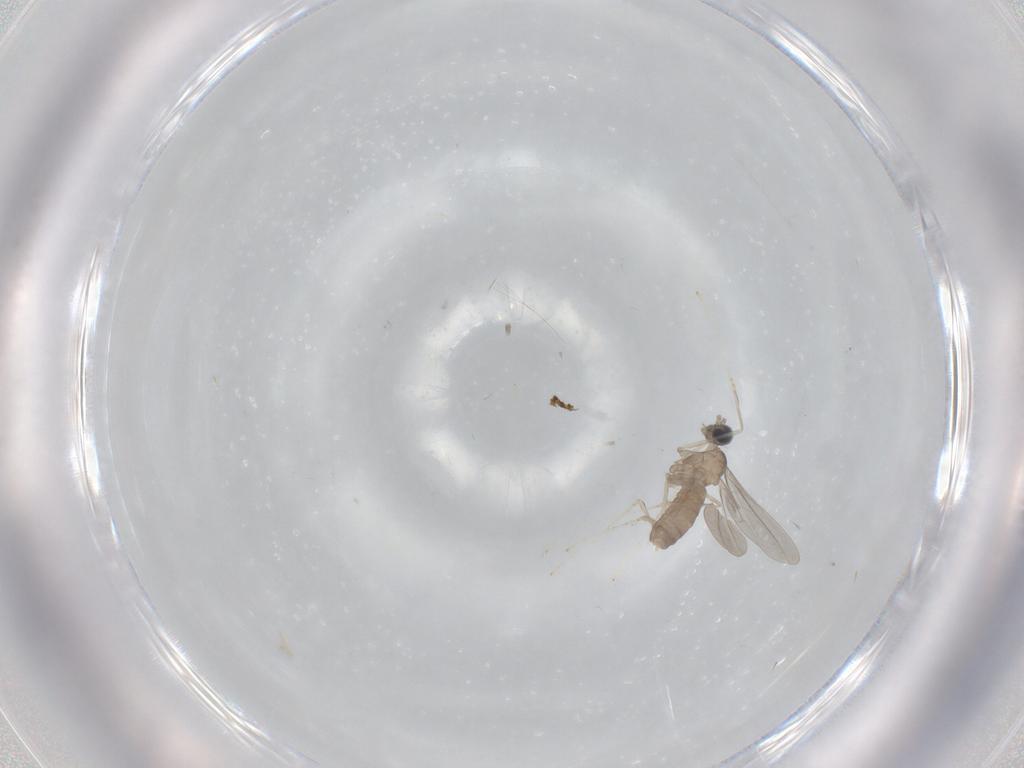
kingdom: Animalia
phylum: Arthropoda
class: Insecta
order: Diptera
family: Cecidomyiidae
